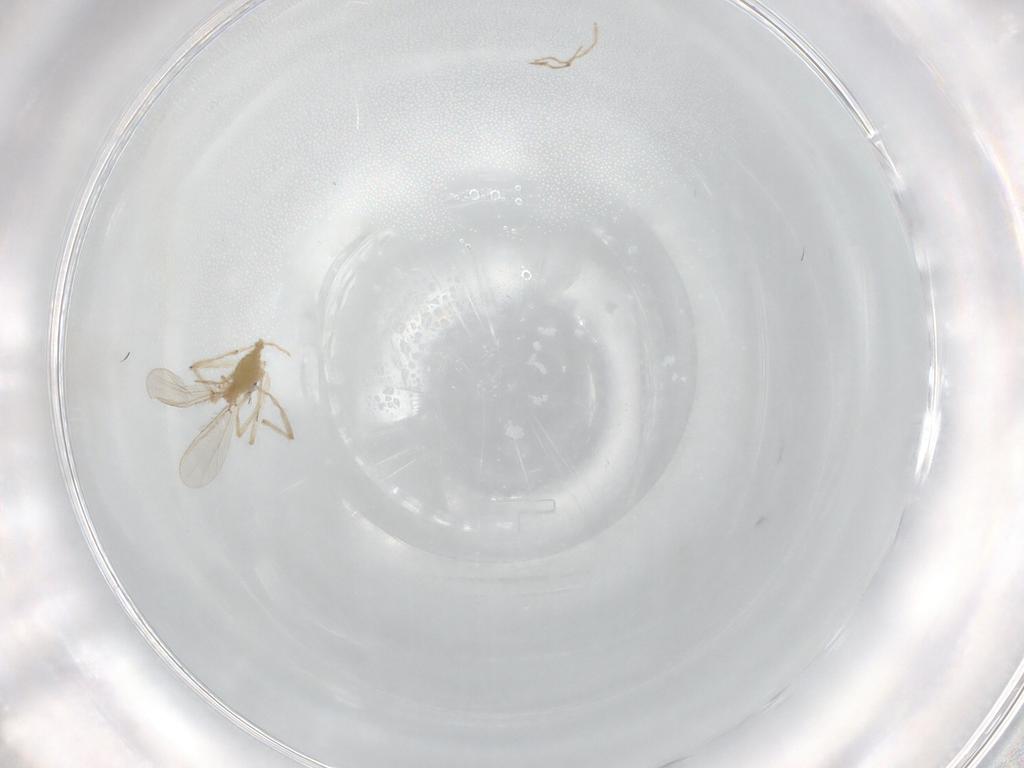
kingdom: Animalia
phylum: Arthropoda
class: Insecta
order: Diptera
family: Chironomidae
